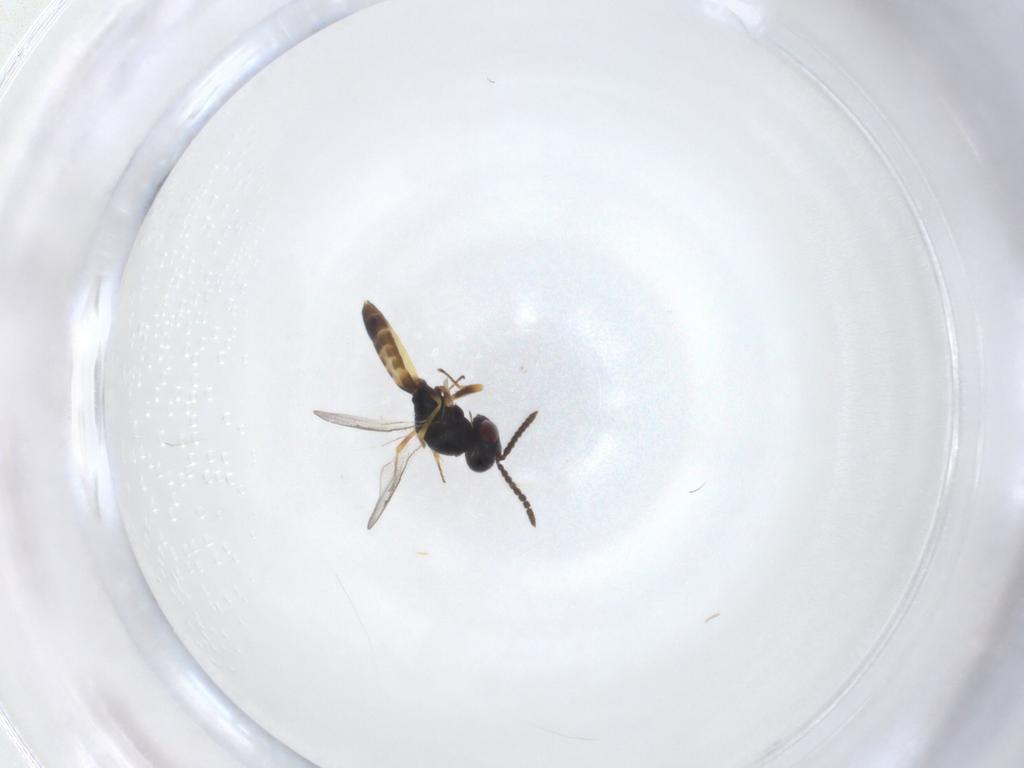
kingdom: Animalia
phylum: Arthropoda
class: Insecta
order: Hymenoptera
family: Pteromalidae
